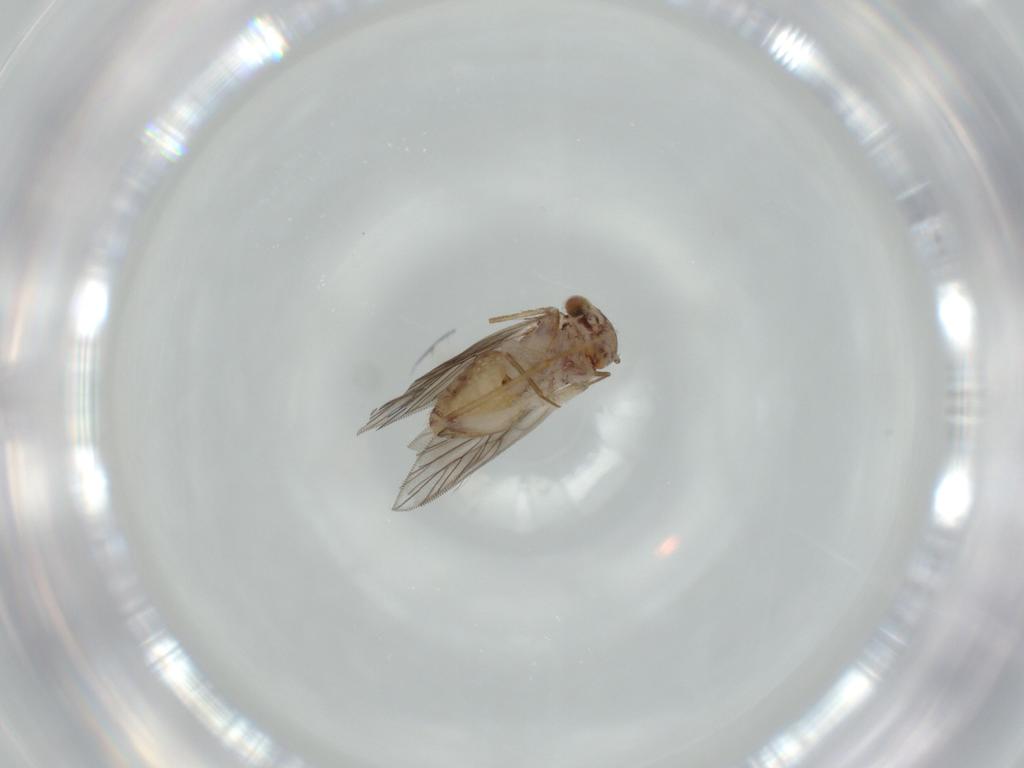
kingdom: Animalia
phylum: Arthropoda
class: Insecta
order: Psocodea
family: Lepidopsocidae
